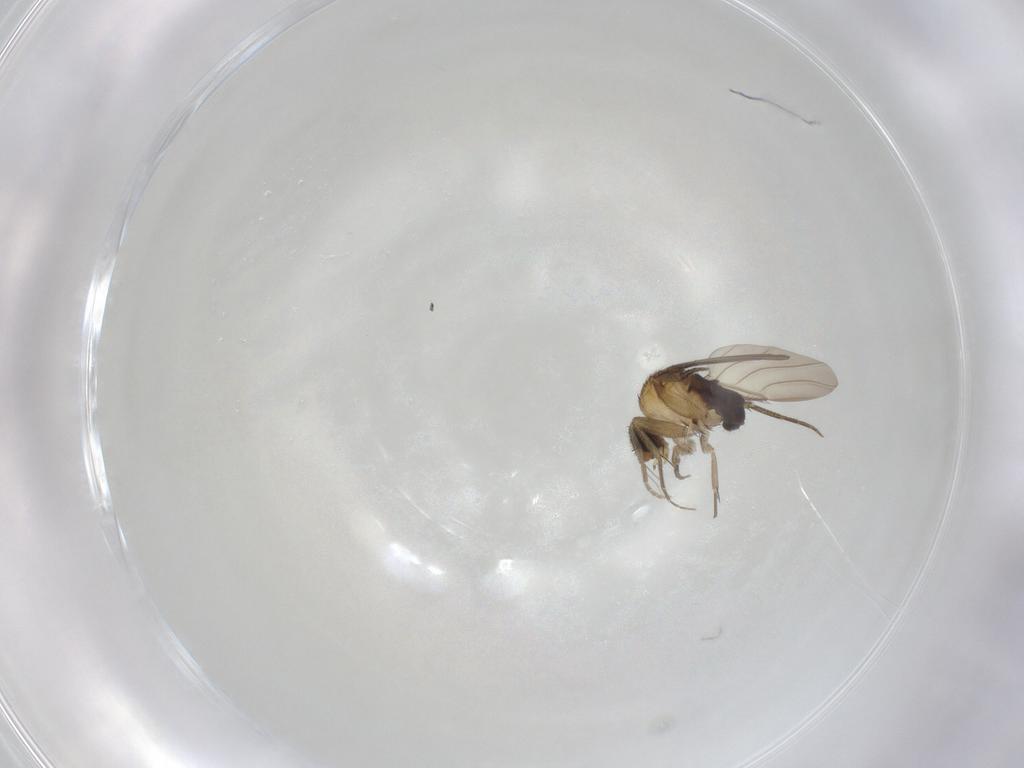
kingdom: Animalia
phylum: Arthropoda
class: Insecta
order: Diptera
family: Phoridae
